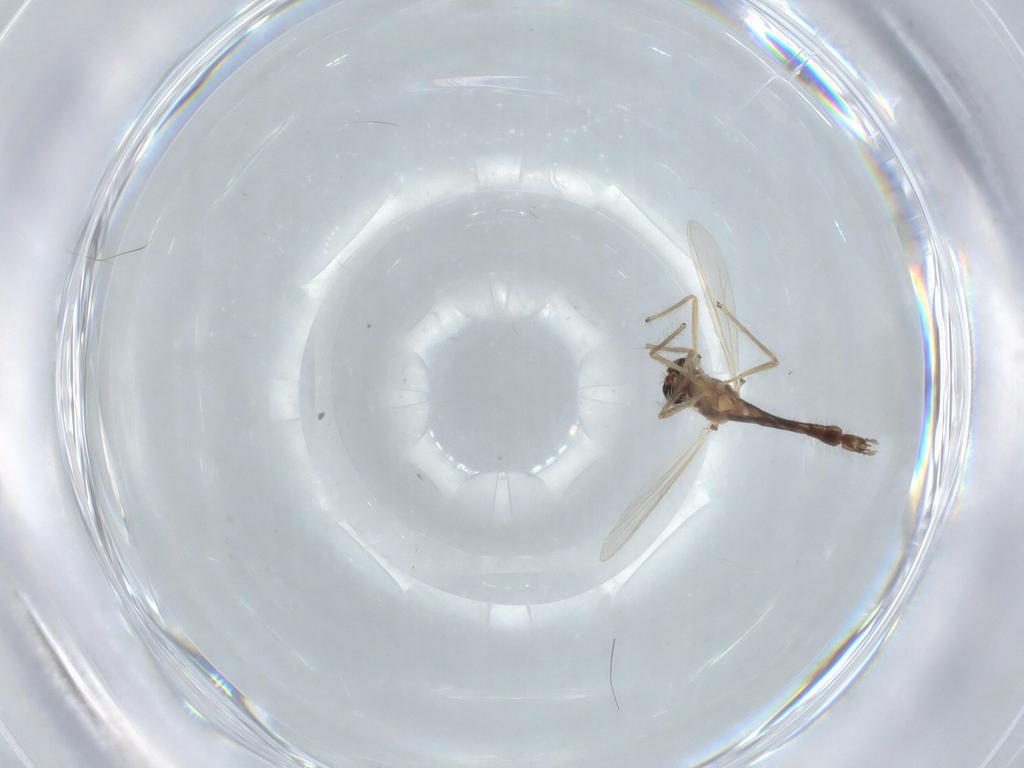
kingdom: Animalia
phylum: Arthropoda
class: Insecta
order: Diptera
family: Chironomidae
